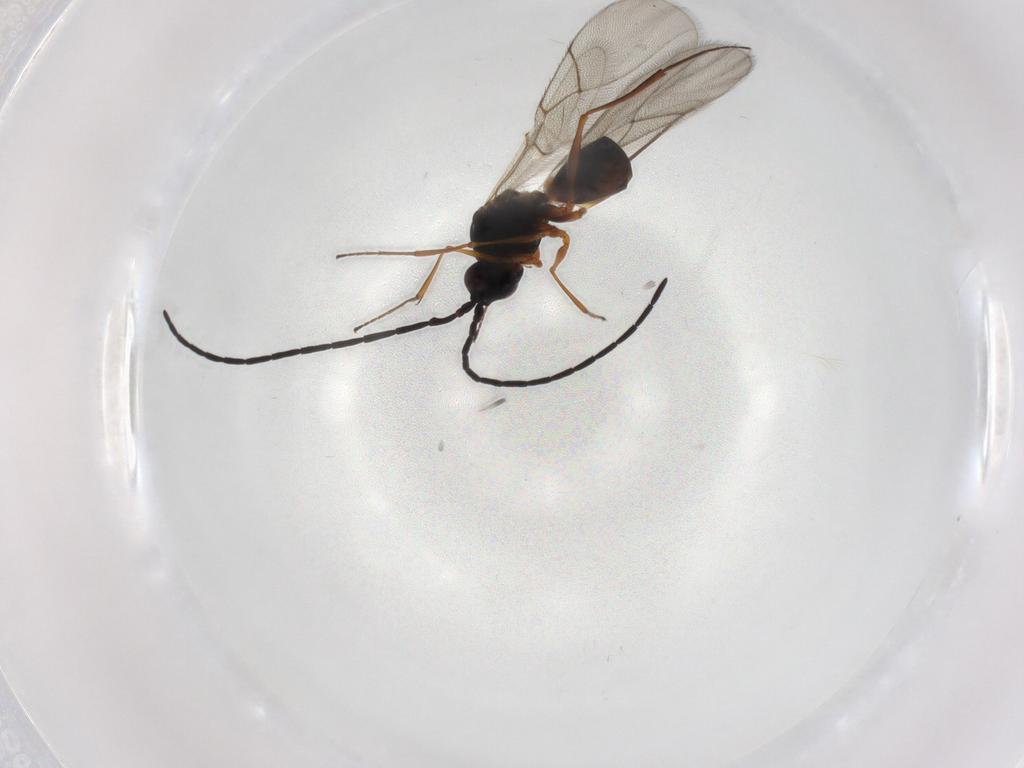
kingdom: Animalia
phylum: Arthropoda
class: Insecta
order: Hymenoptera
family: Figitidae
